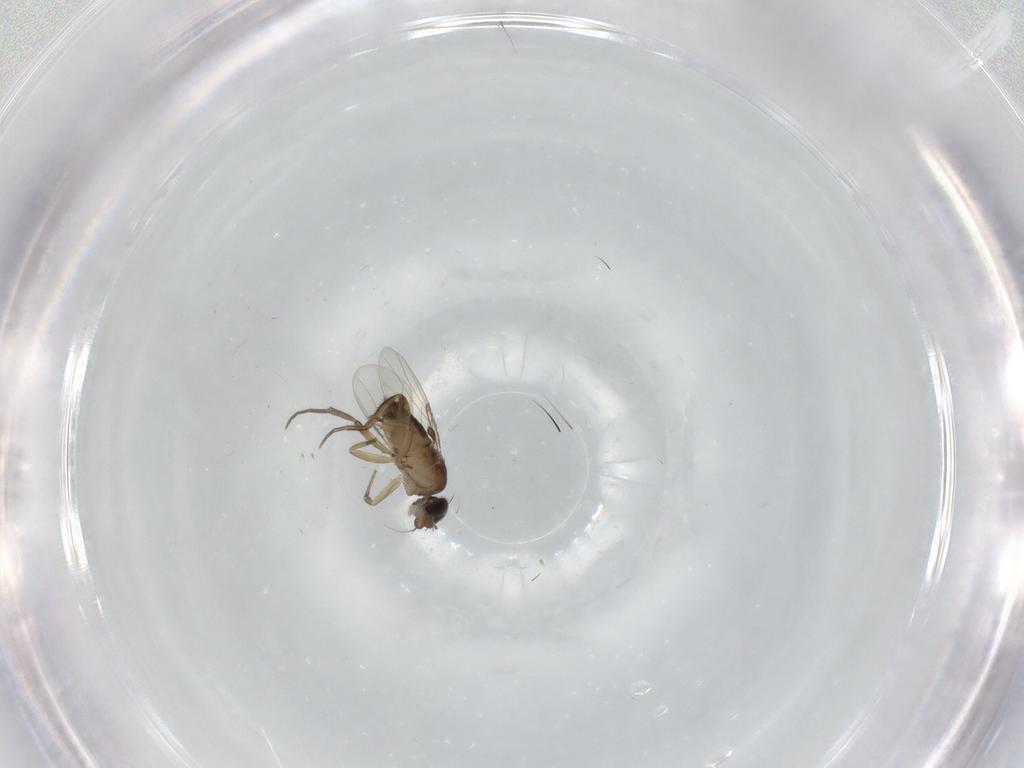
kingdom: Animalia
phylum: Arthropoda
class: Insecta
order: Diptera
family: Phoridae
